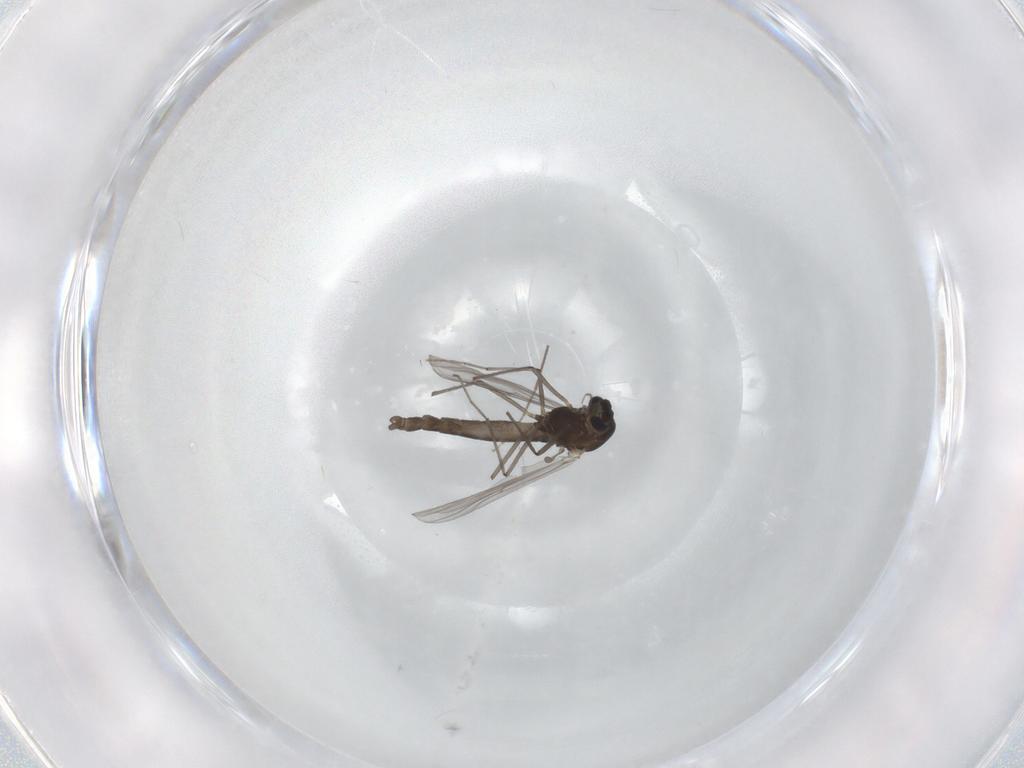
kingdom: Animalia
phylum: Arthropoda
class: Insecta
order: Diptera
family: Chironomidae
